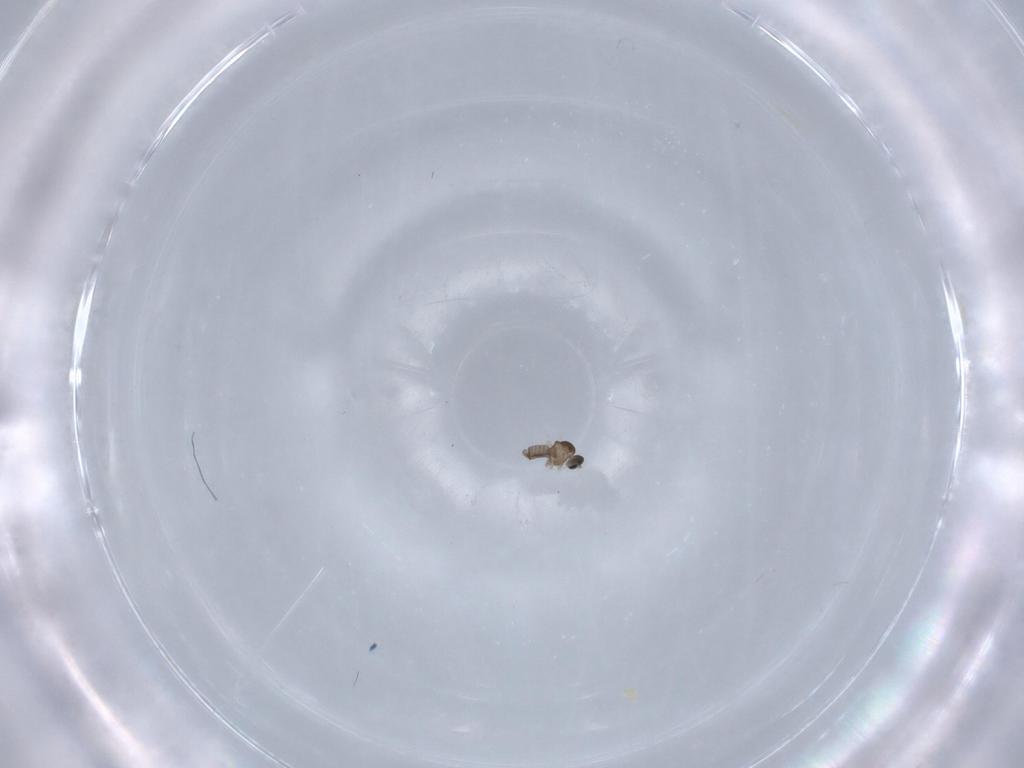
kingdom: Animalia
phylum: Arthropoda
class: Insecta
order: Diptera
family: Cecidomyiidae
